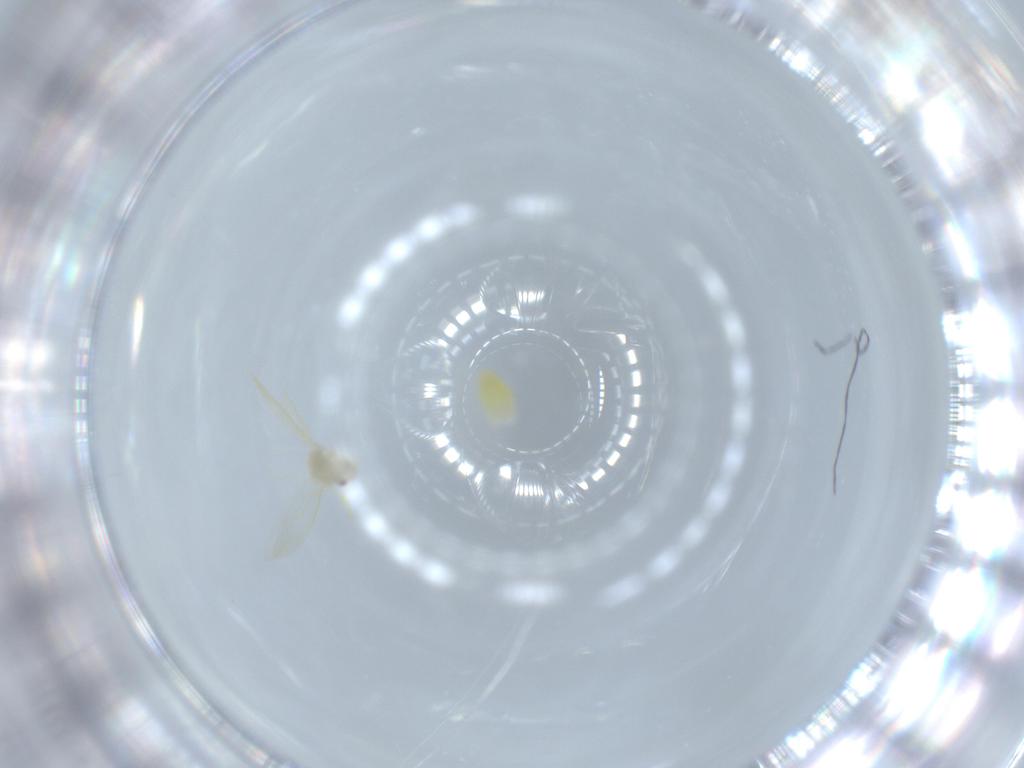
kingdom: Animalia
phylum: Arthropoda
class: Insecta
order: Hemiptera
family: Aleyrodidae
